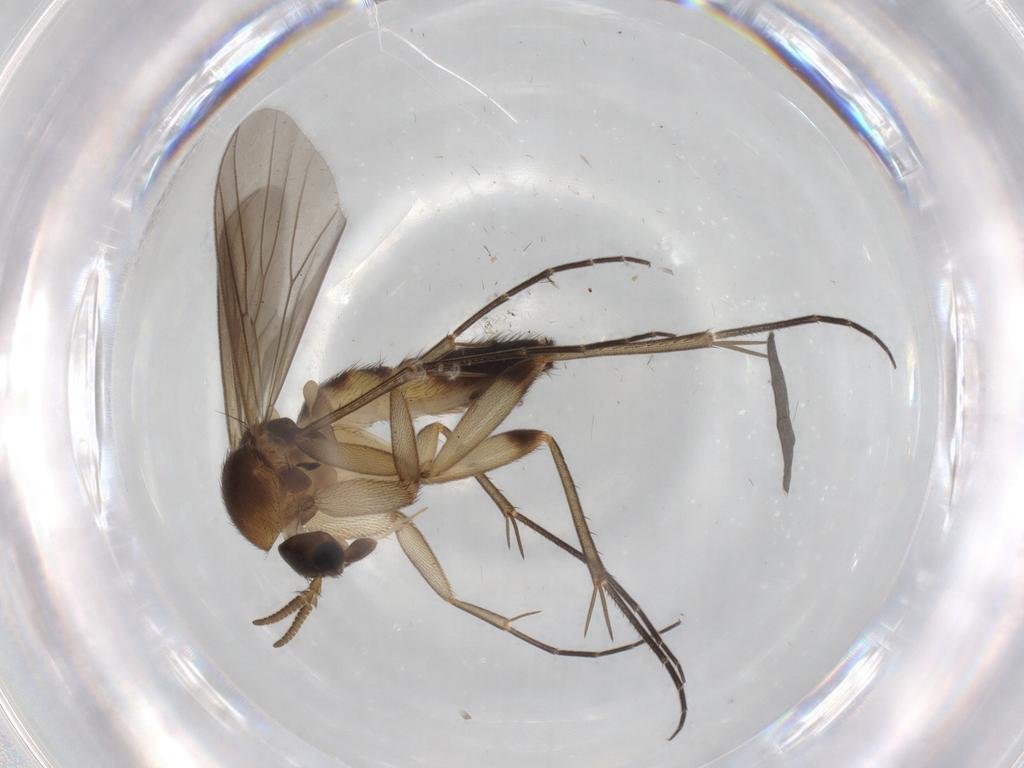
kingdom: Animalia
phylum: Arthropoda
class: Insecta
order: Diptera
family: Mycetophilidae
